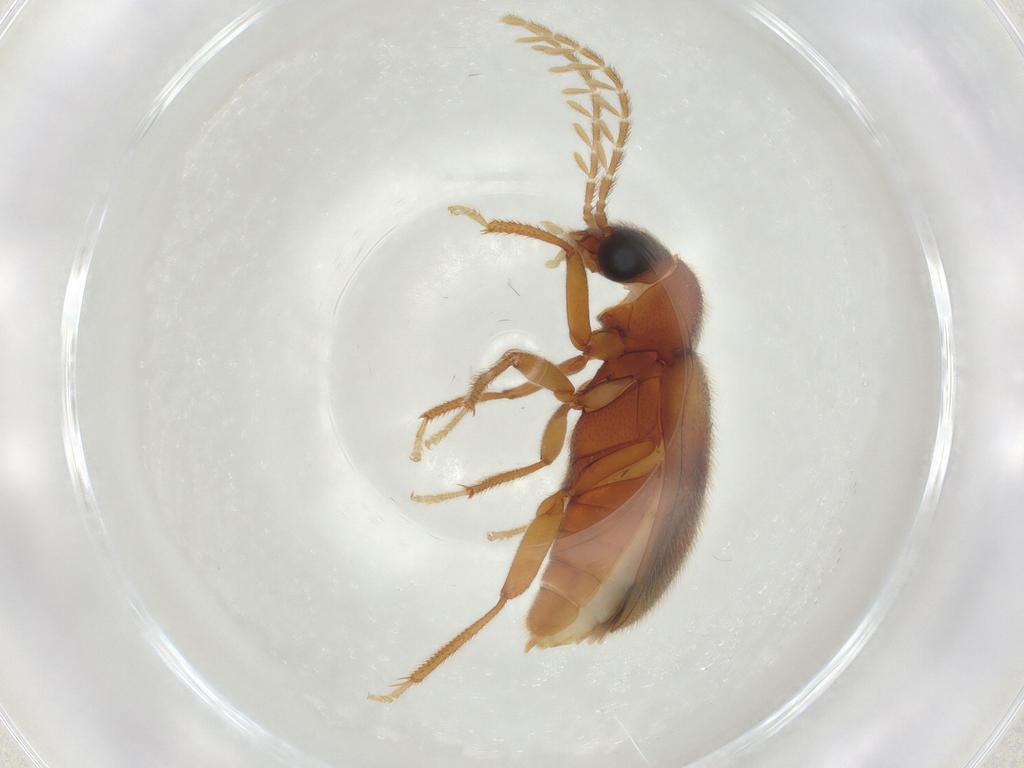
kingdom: Animalia
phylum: Arthropoda
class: Insecta
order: Coleoptera
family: Ptilodactylidae
